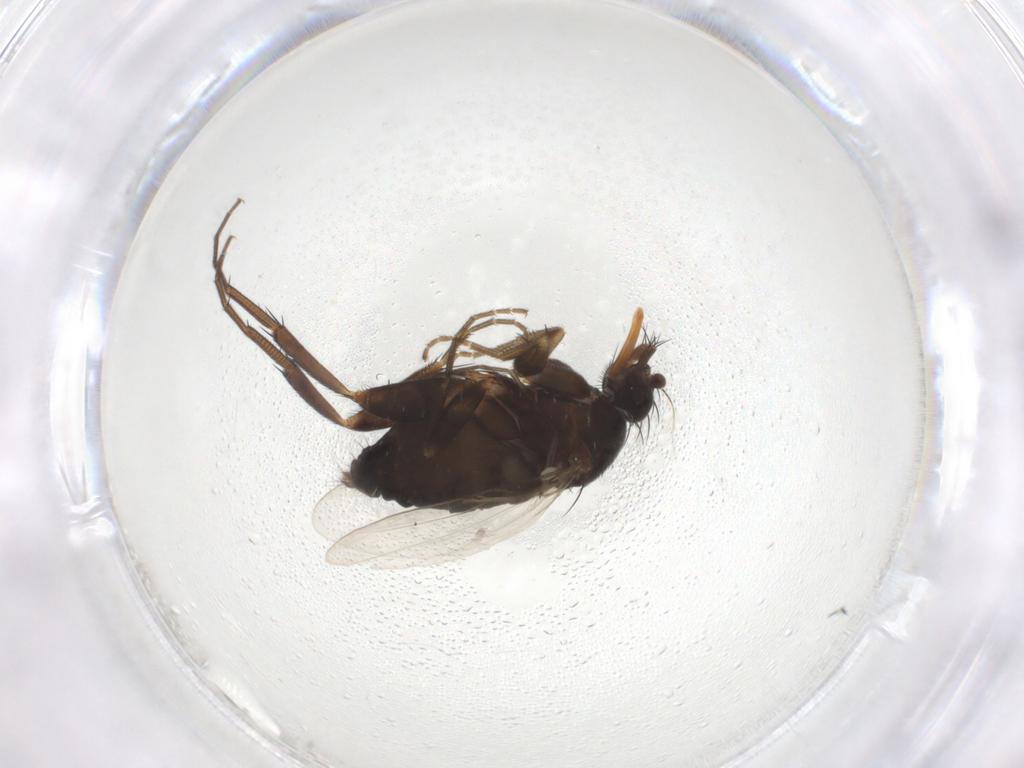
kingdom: Animalia
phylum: Arthropoda
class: Insecta
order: Diptera
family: Phoridae
